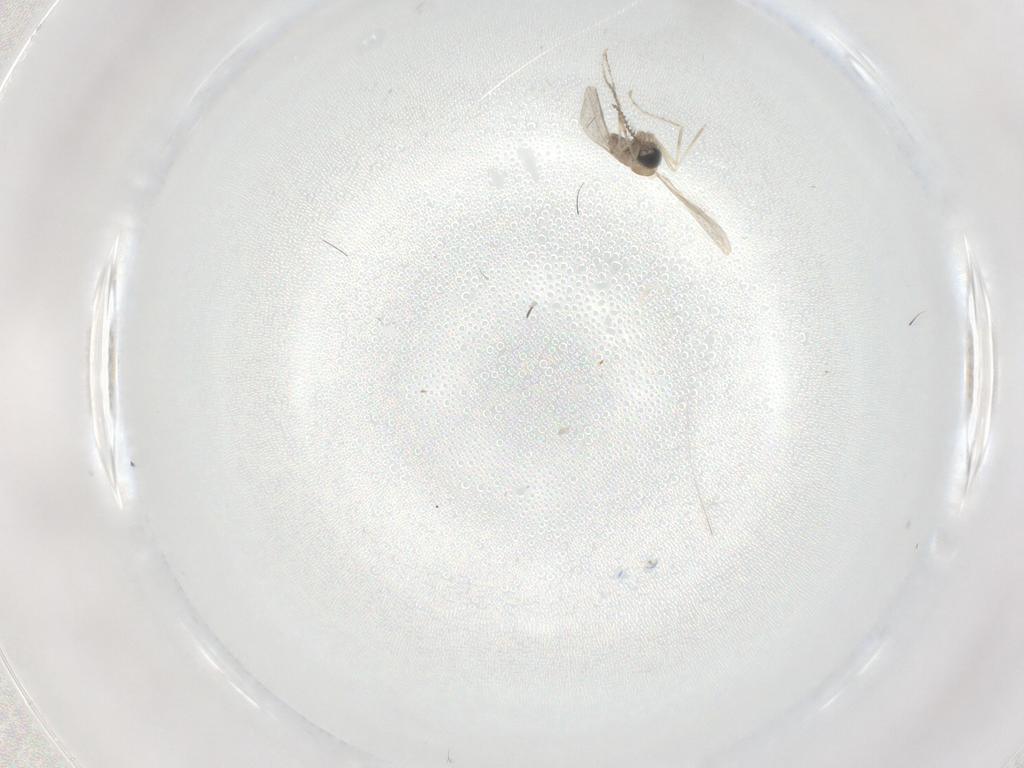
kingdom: Animalia
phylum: Arthropoda
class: Insecta
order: Diptera
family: Cecidomyiidae
